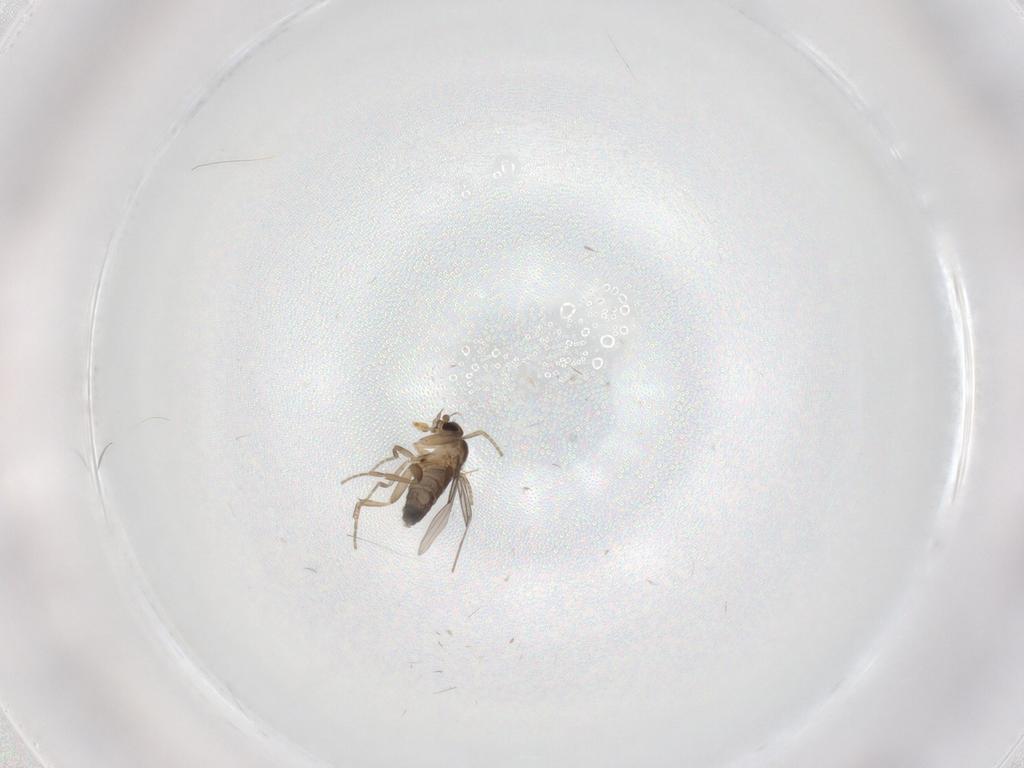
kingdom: Animalia
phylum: Arthropoda
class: Insecta
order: Diptera
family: Phoridae
